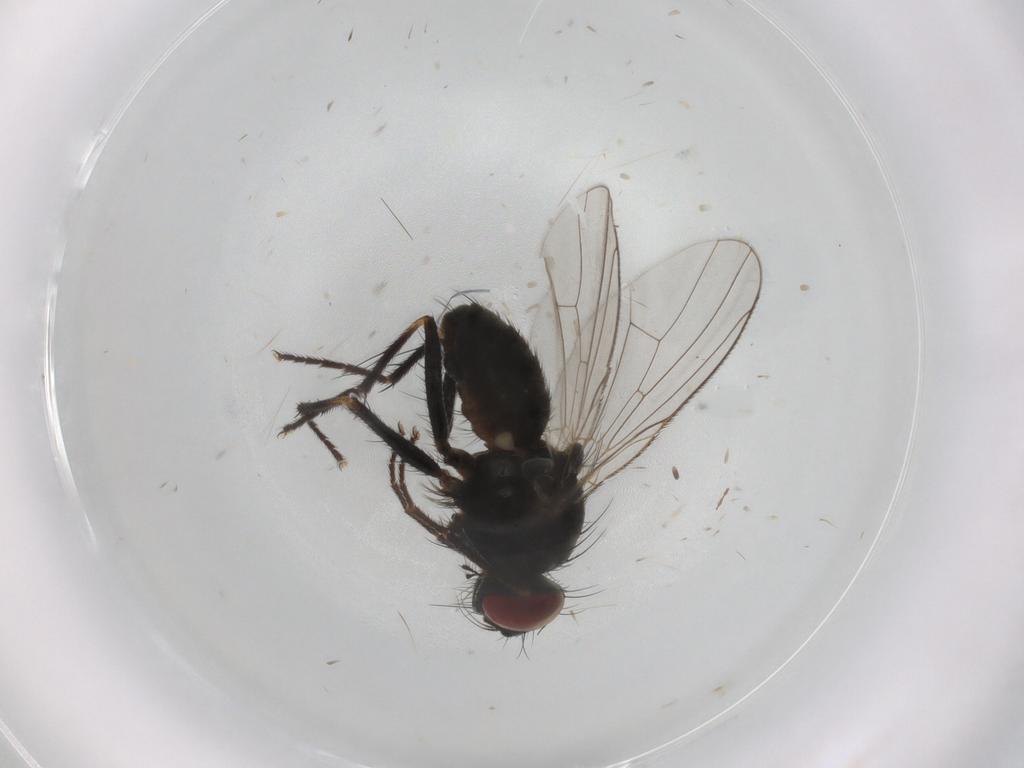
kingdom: Animalia
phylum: Arthropoda
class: Insecta
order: Diptera
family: Muscidae
